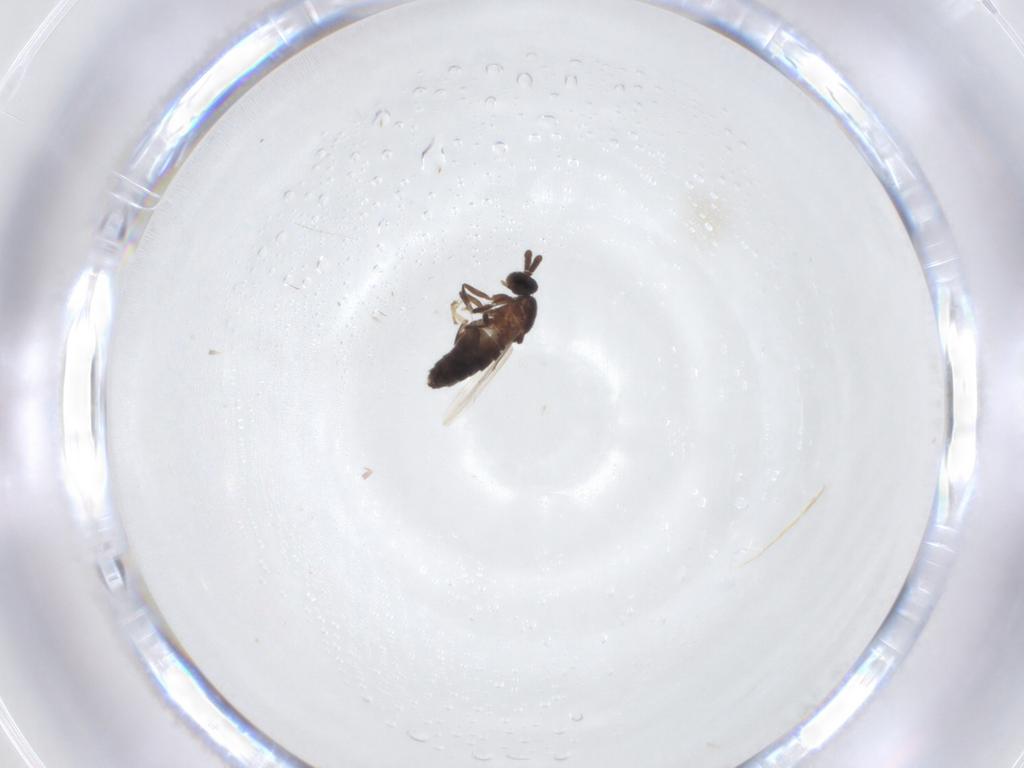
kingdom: Animalia
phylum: Arthropoda
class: Insecta
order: Diptera
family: Scatopsidae
